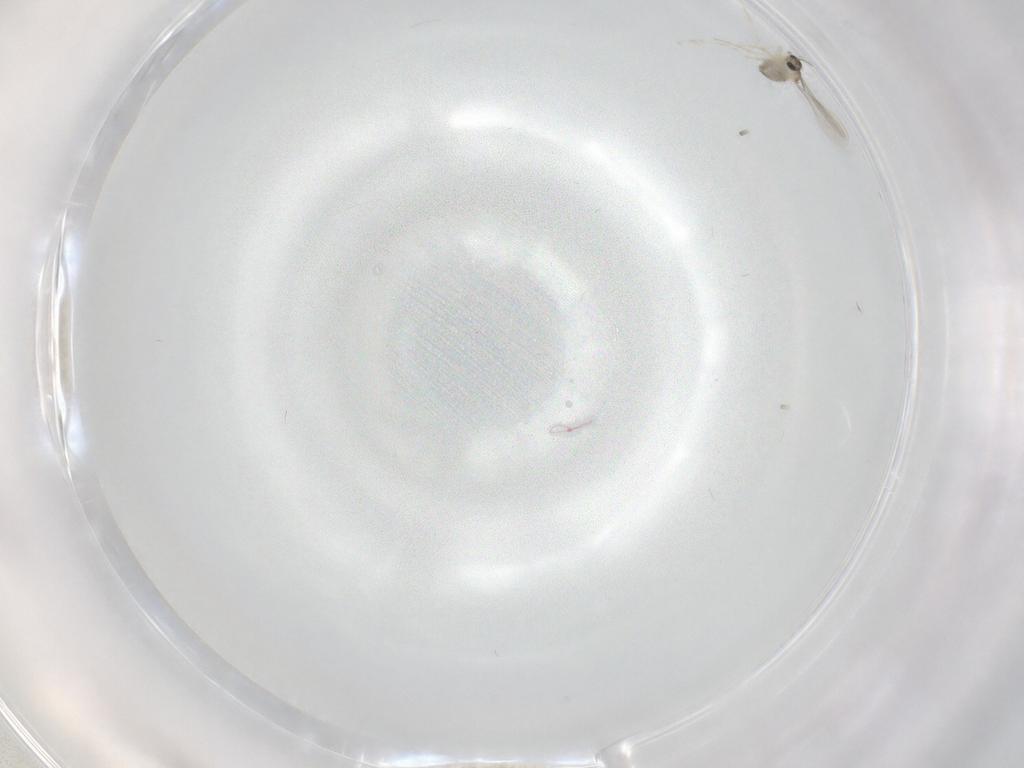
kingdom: Animalia
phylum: Arthropoda
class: Insecta
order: Diptera
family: Cecidomyiidae
